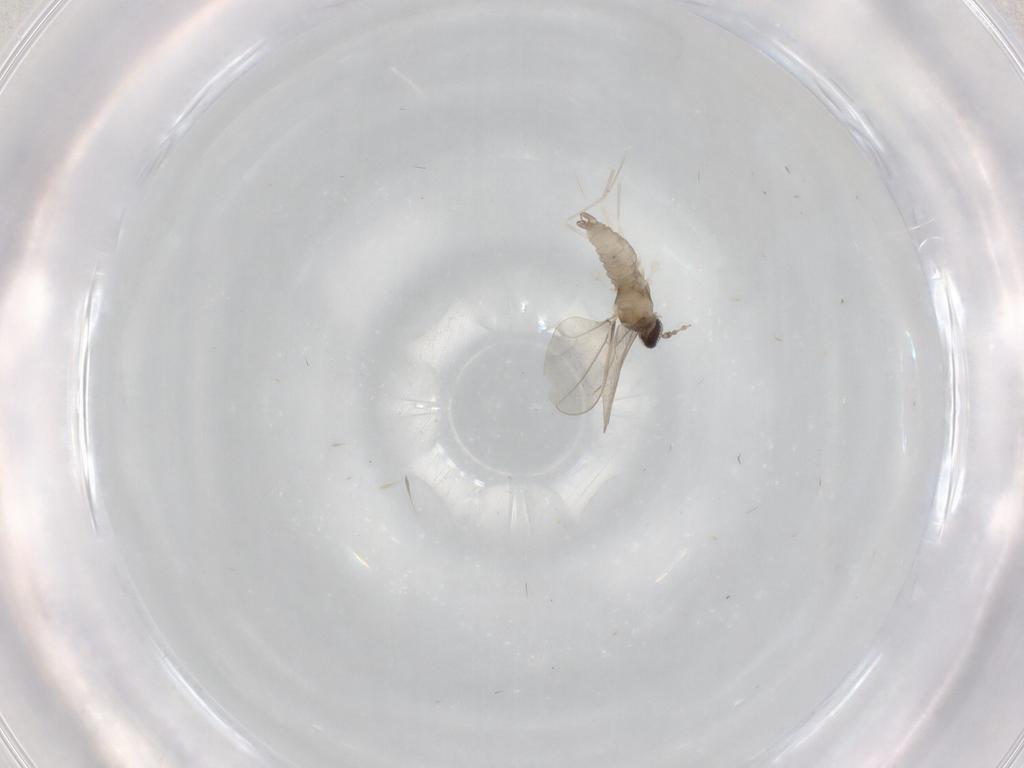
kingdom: Animalia
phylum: Arthropoda
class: Insecta
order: Diptera
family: Cecidomyiidae
